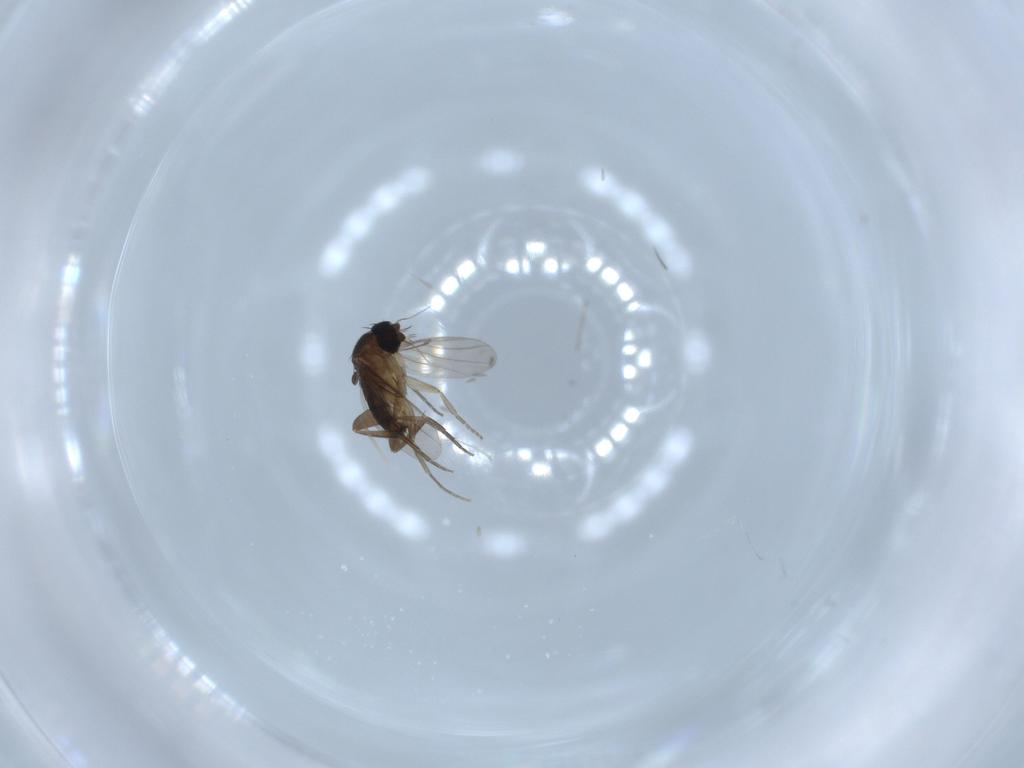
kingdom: Animalia
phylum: Arthropoda
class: Insecta
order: Diptera
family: Phoridae
